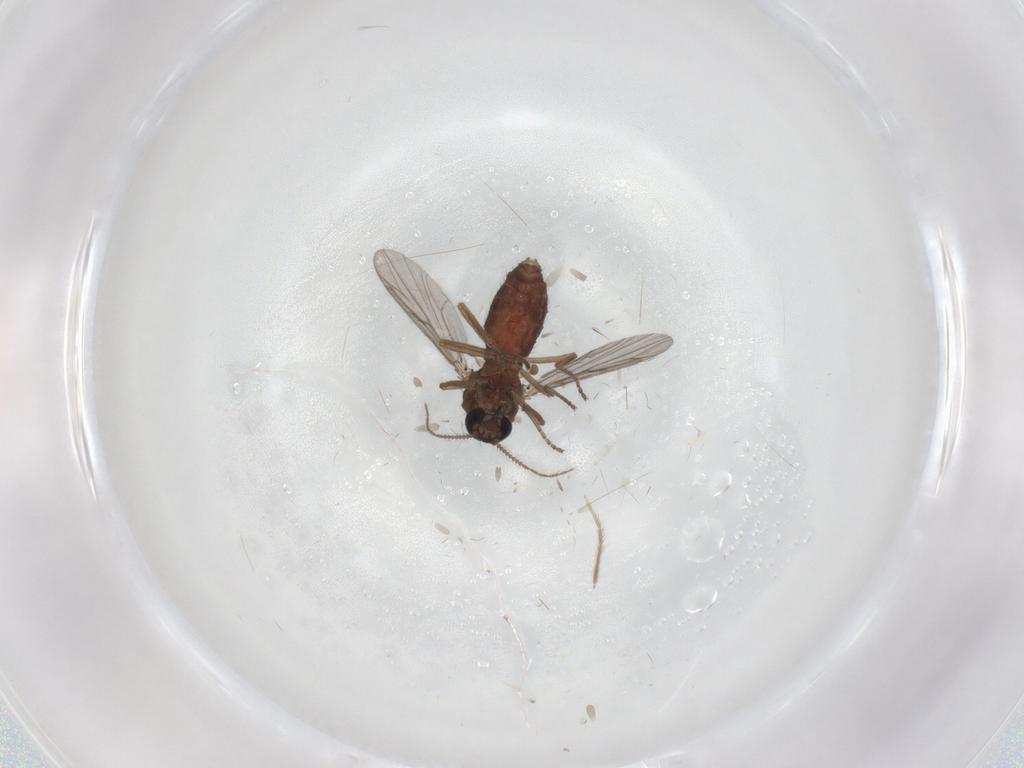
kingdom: Animalia
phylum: Arthropoda
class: Insecta
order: Diptera
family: Ceratopogonidae
